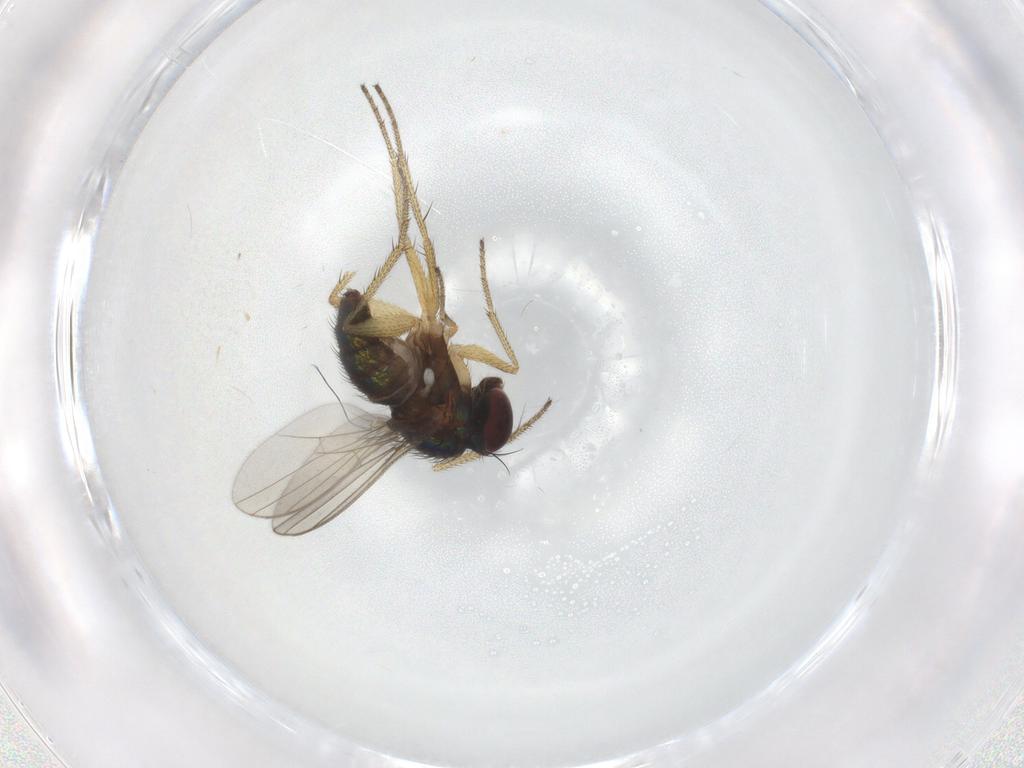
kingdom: Animalia
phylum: Arthropoda
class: Insecta
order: Diptera
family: Dolichopodidae
